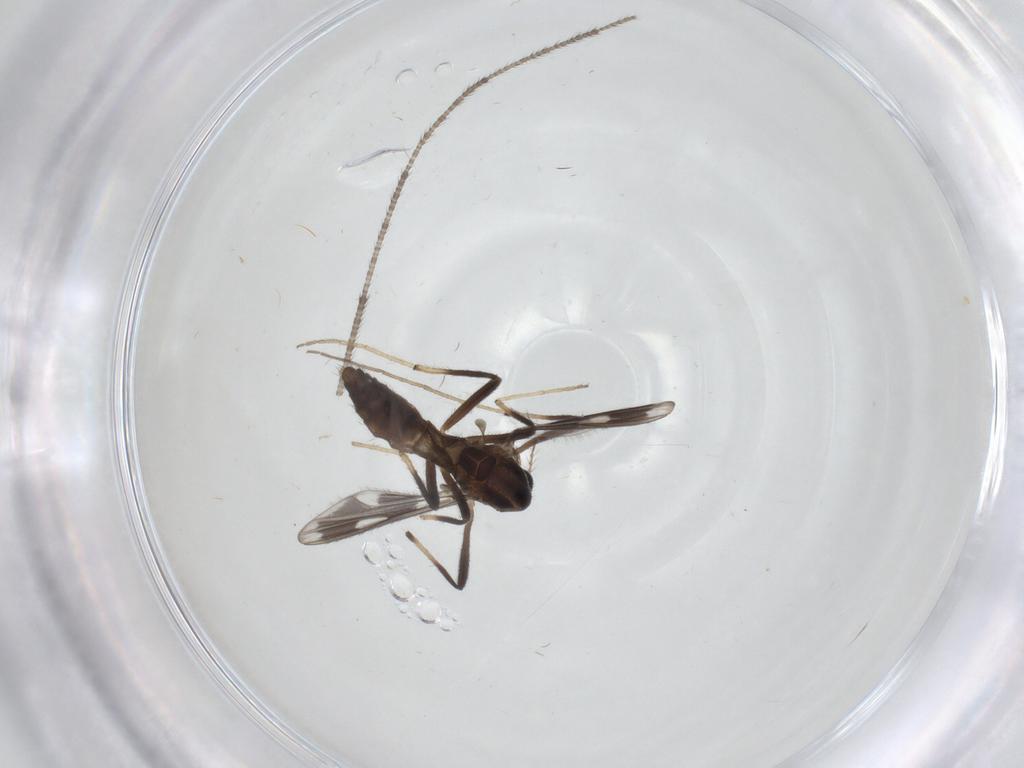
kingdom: Animalia
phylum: Arthropoda
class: Insecta
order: Diptera
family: Chironomidae
